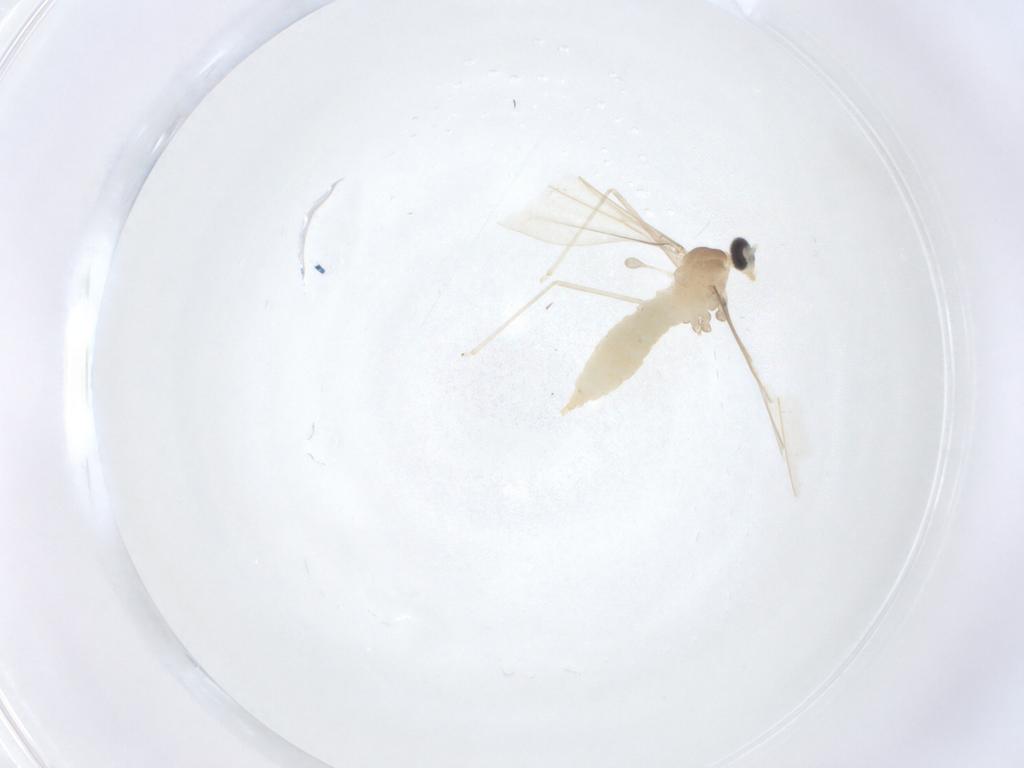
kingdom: Animalia
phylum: Arthropoda
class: Insecta
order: Diptera
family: Cecidomyiidae
